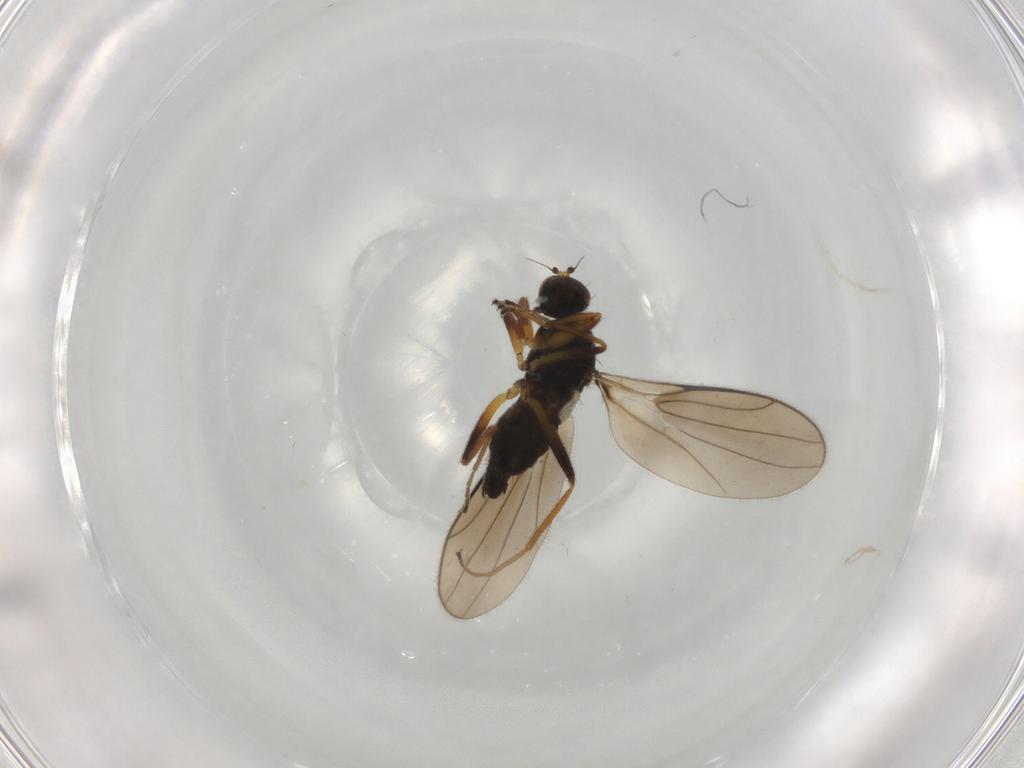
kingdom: Animalia
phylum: Arthropoda
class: Insecta
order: Diptera
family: Hybotidae
